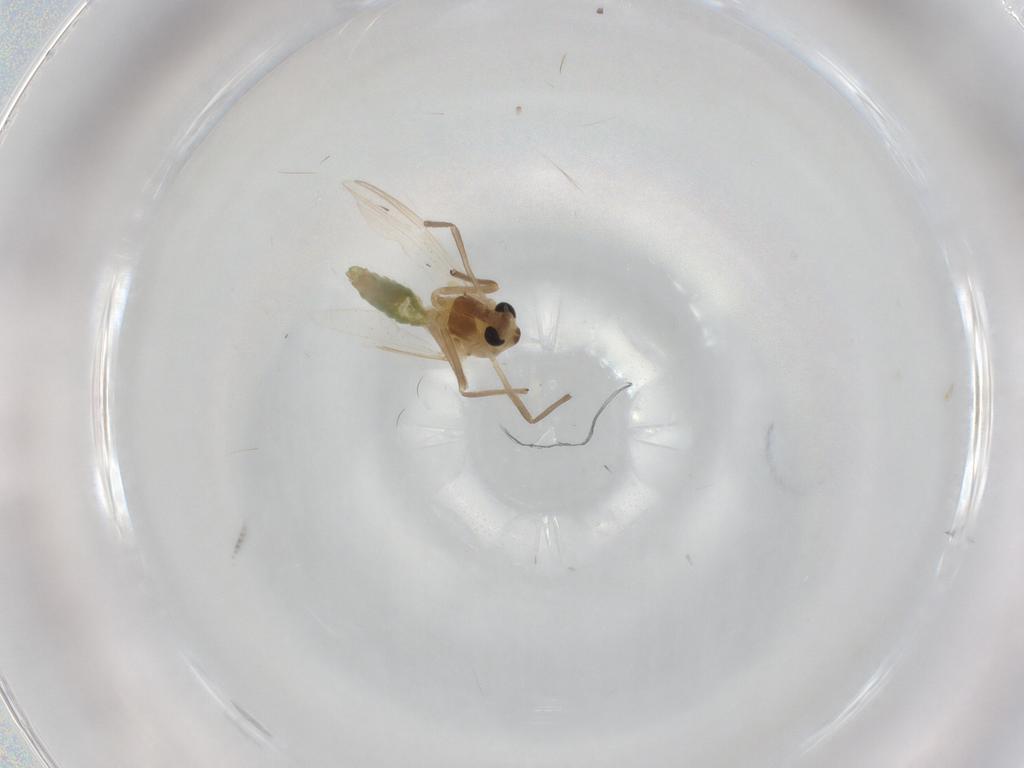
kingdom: Animalia
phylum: Arthropoda
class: Insecta
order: Diptera
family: Chironomidae
